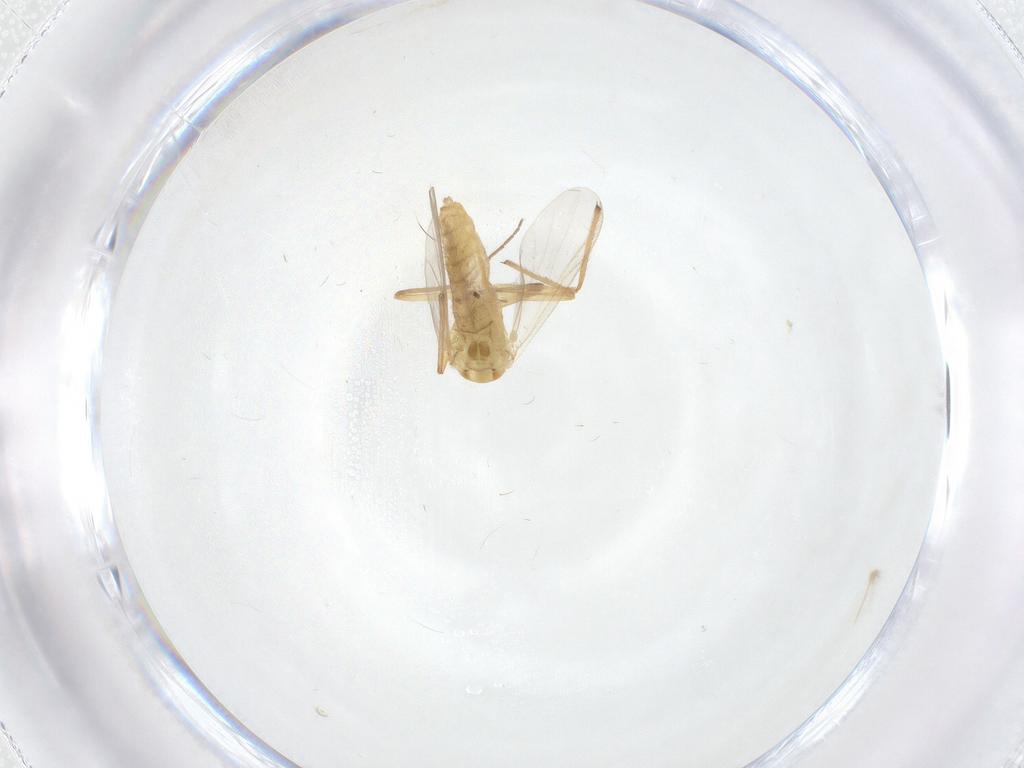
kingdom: Animalia
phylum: Arthropoda
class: Insecta
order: Diptera
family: Chironomidae
